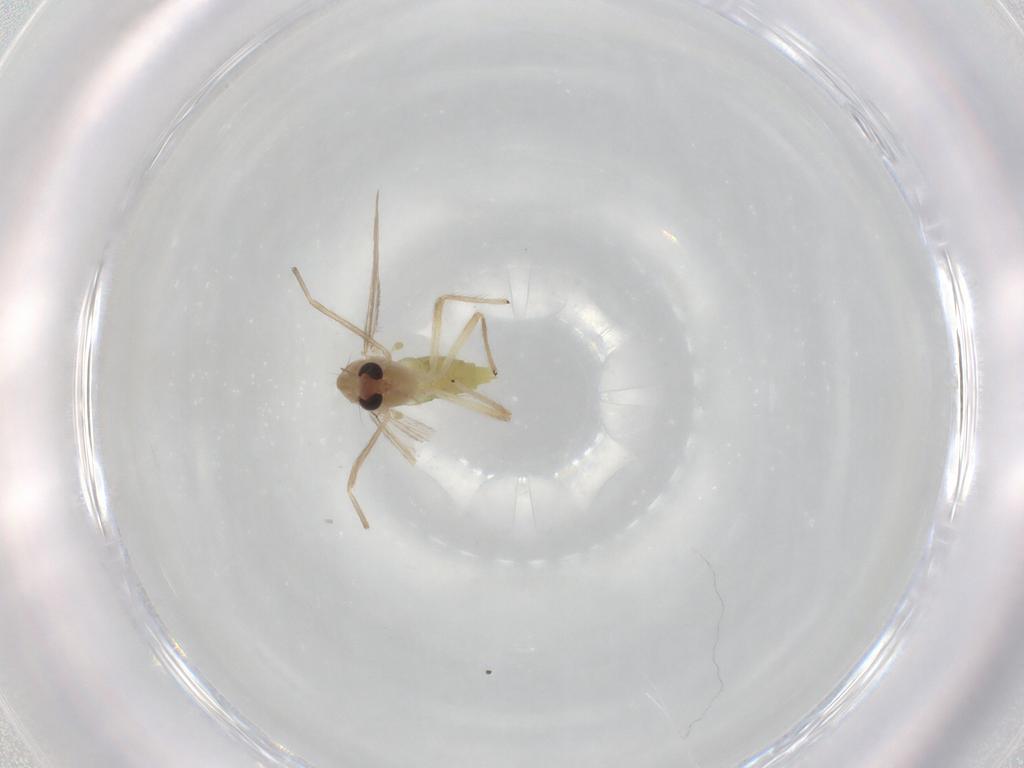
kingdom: Animalia
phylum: Arthropoda
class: Insecta
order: Diptera
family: Chironomidae
